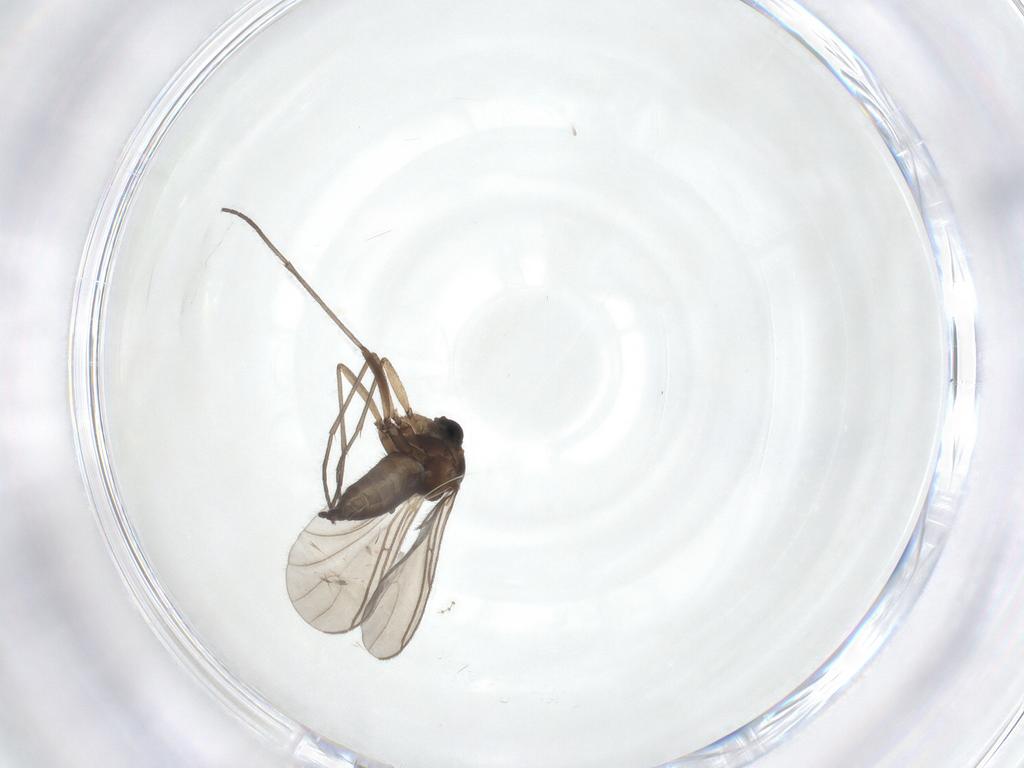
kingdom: Animalia
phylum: Arthropoda
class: Insecta
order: Diptera
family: Sciaridae
